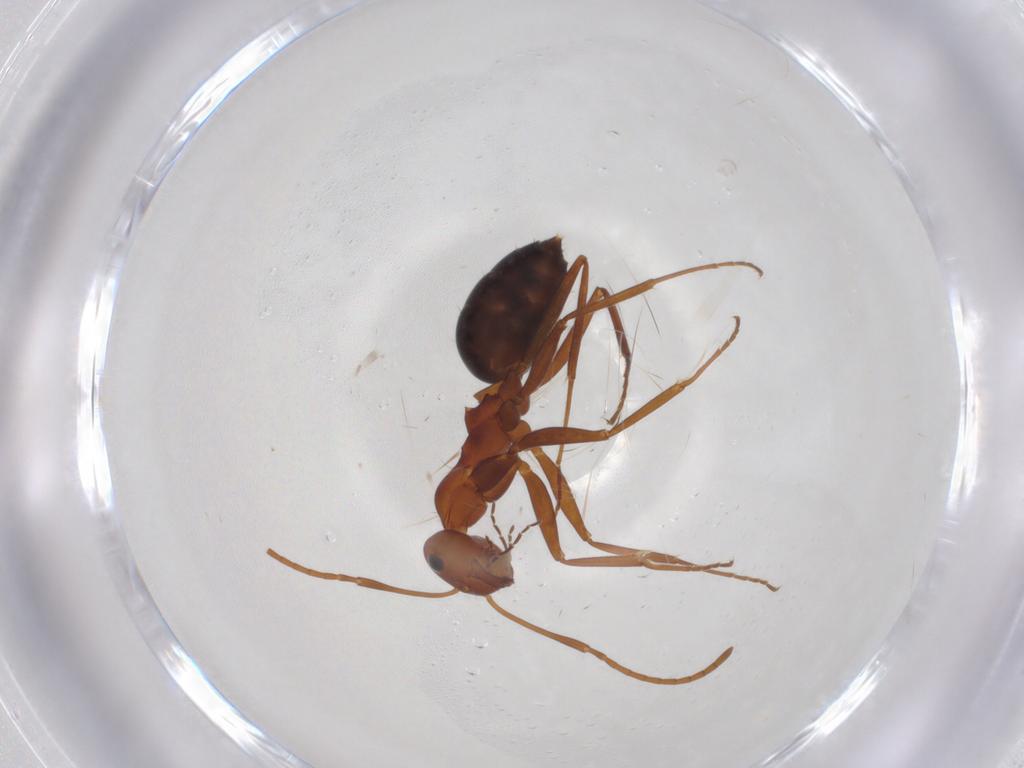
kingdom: Animalia
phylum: Arthropoda
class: Insecta
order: Hymenoptera
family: Formicidae
